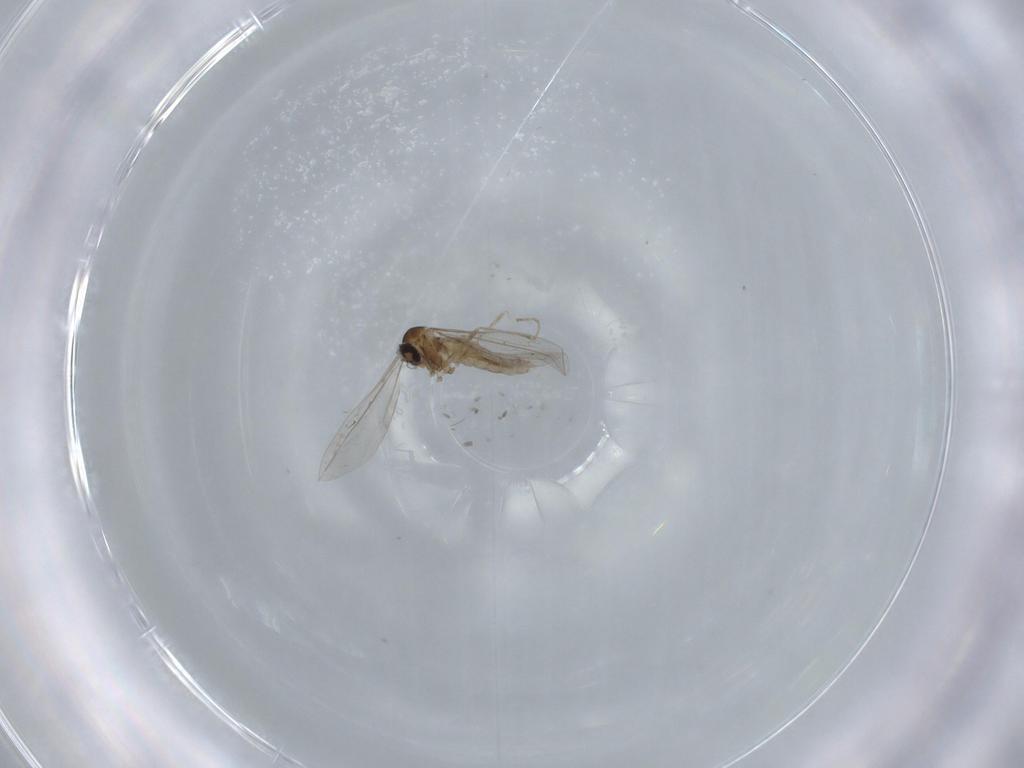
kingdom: Animalia
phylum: Arthropoda
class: Insecta
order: Diptera
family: Cecidomyiidae
